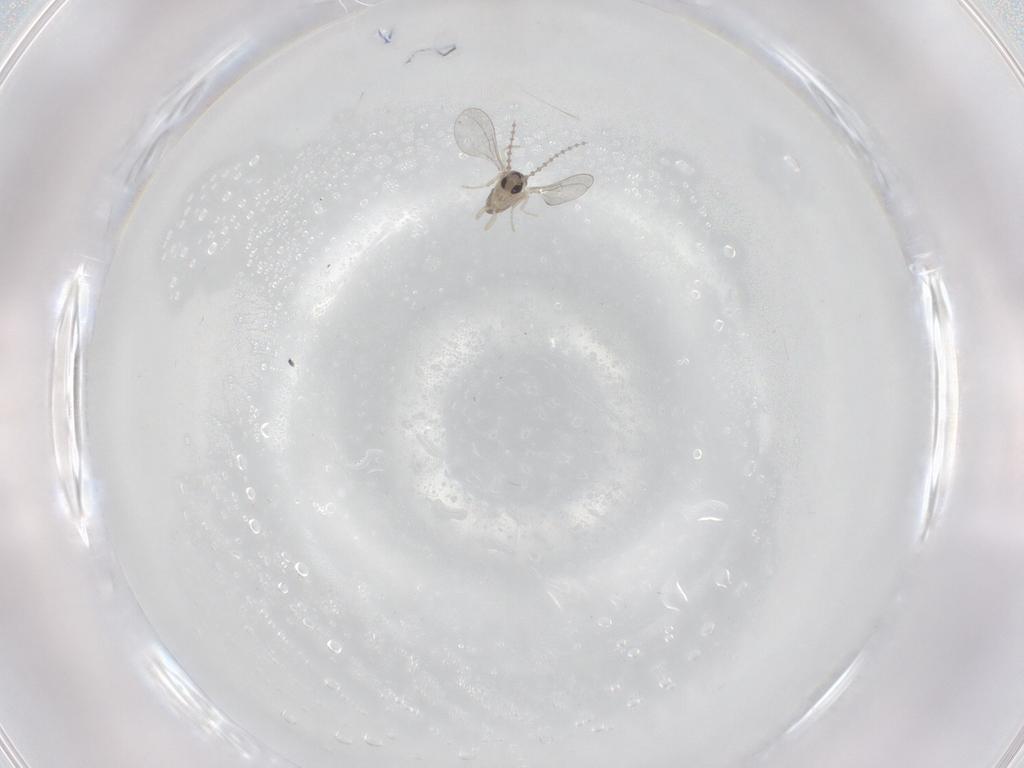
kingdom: Animalia
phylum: Arthropoda
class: Insecta
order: Diptera
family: Cecidomyiidae
